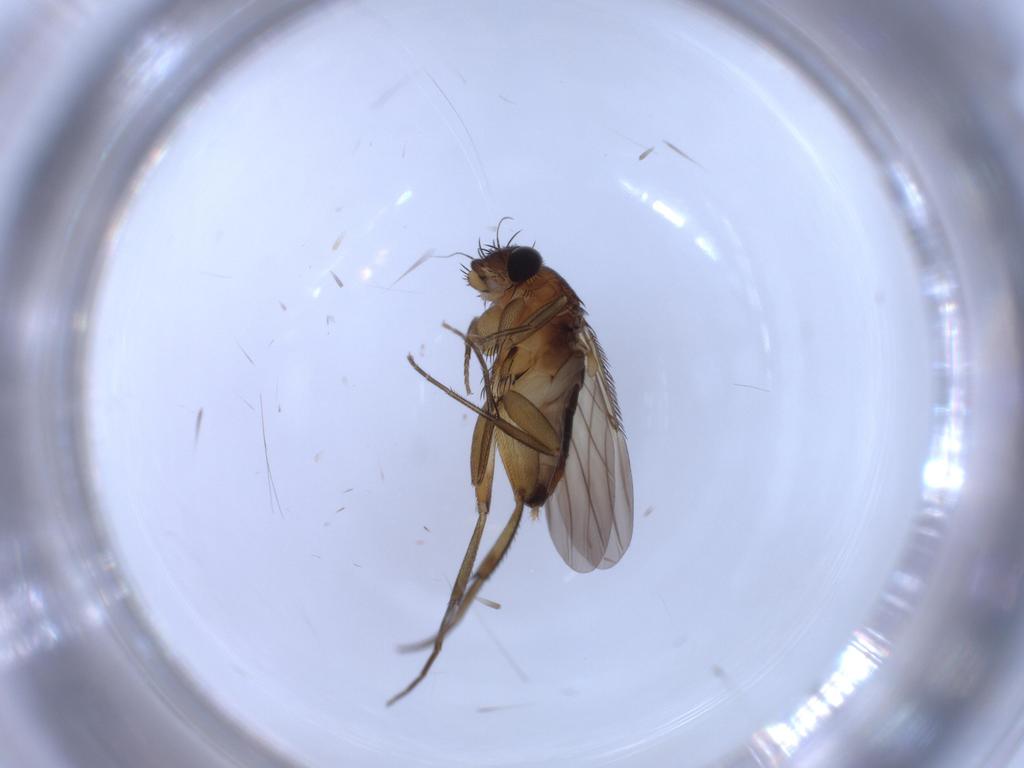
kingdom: Animalia
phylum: Arthropoda
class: Insecta
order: Diptera
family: Phoridae
